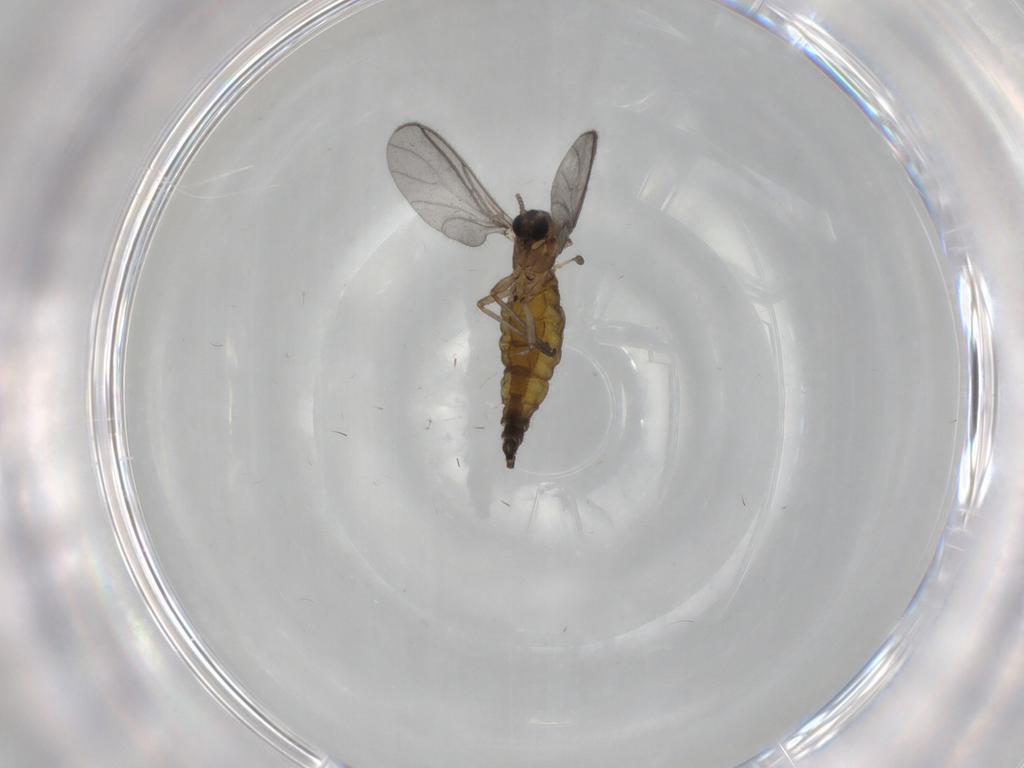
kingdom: Animalia
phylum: Arthropoda
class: Insecta
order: Diptera
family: Sciaridae
